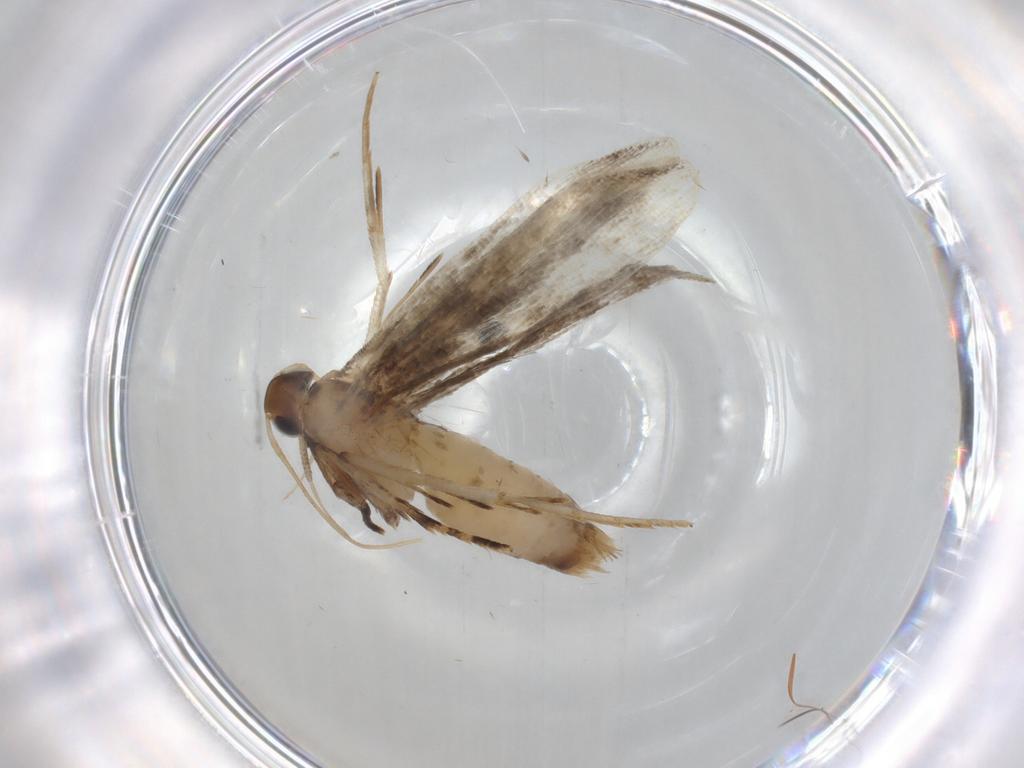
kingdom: Animalia
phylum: Arthropoda
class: Insecta
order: Lepidoptera
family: Gelechiidae
